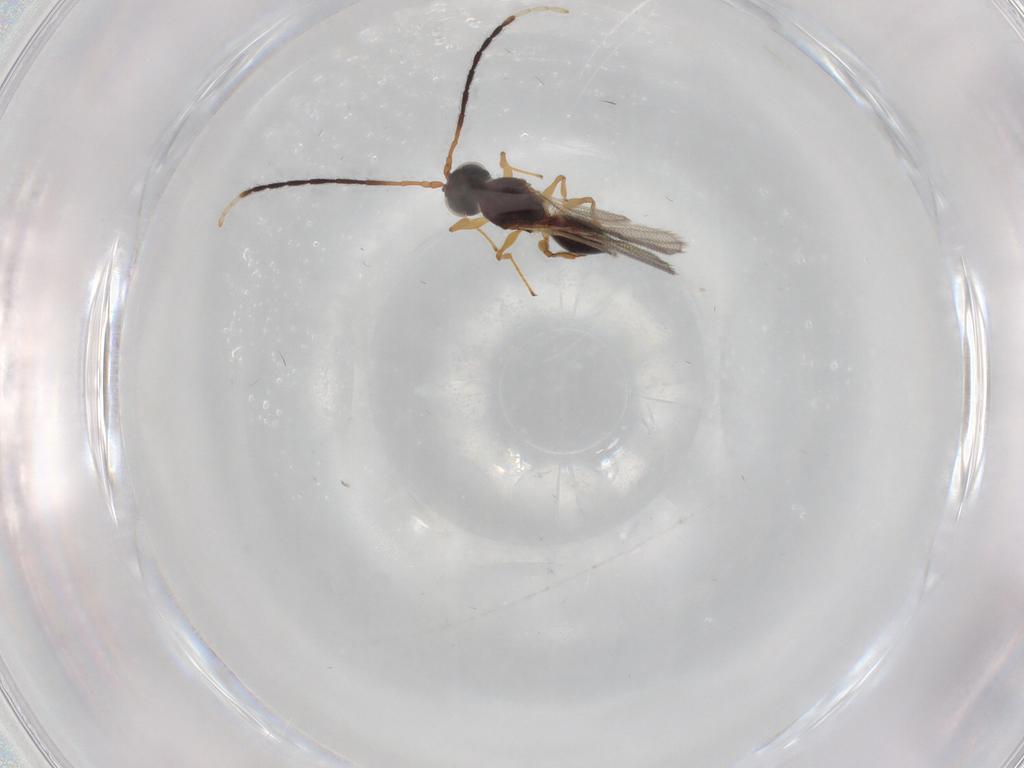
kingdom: Animalia
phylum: Arthropoda
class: Insecta
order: Hymenoptera
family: Figitidae
